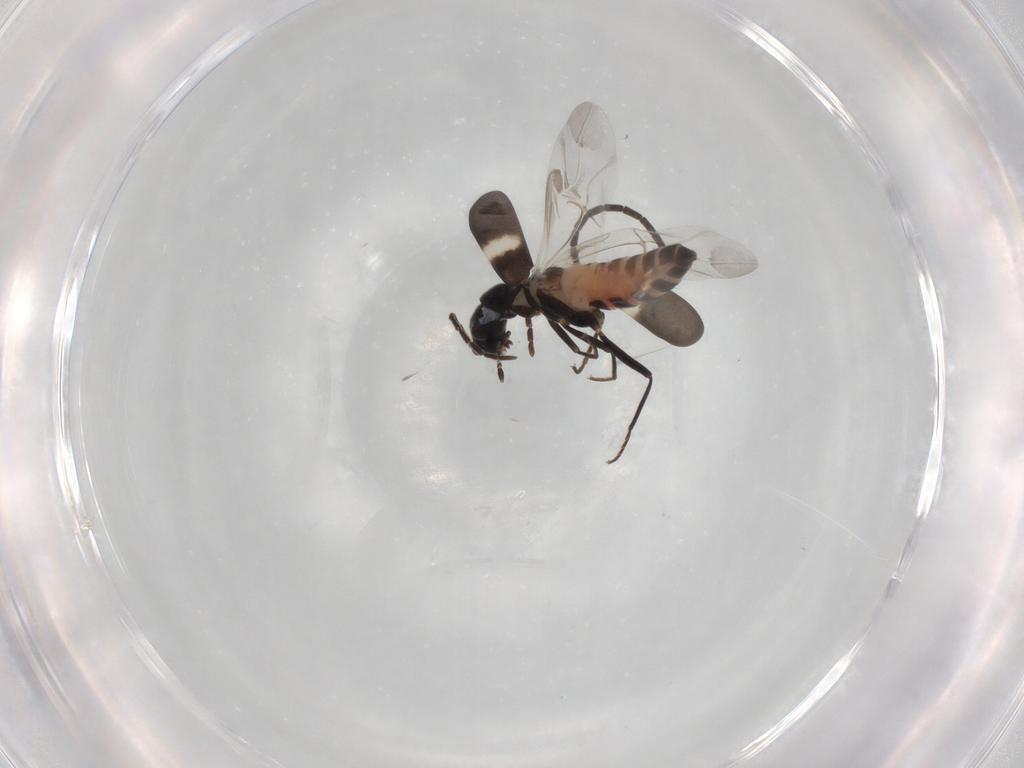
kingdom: Animalia
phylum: Arthropoda
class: Insecta
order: Coleoptera
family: Melyridae
